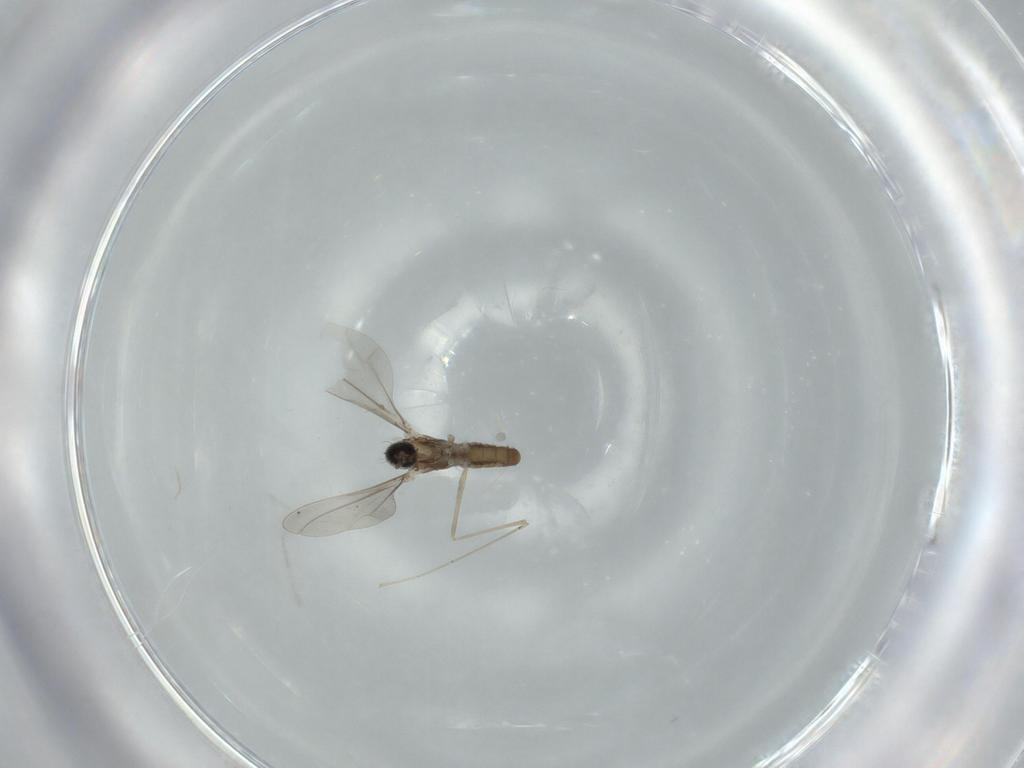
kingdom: Animalia
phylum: Arthropoda
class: Insecta
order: Diptera
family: Cecidomyiidae
